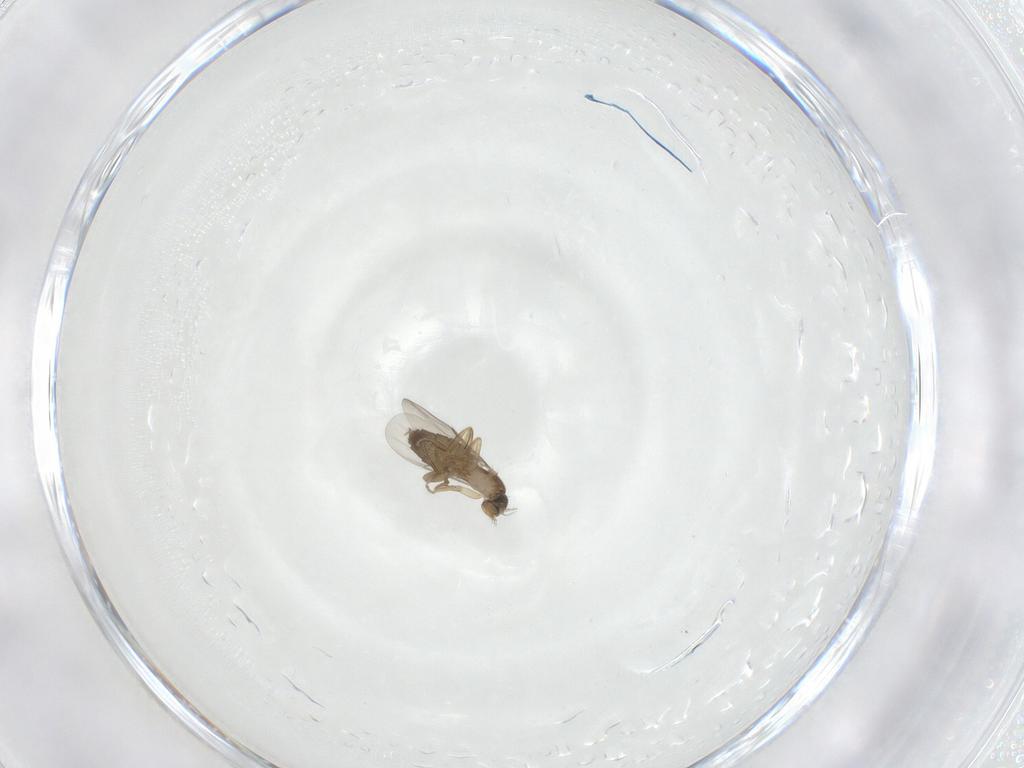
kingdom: Animalia
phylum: Arthropoda
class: Insecta
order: Diptera
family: Phoridae
